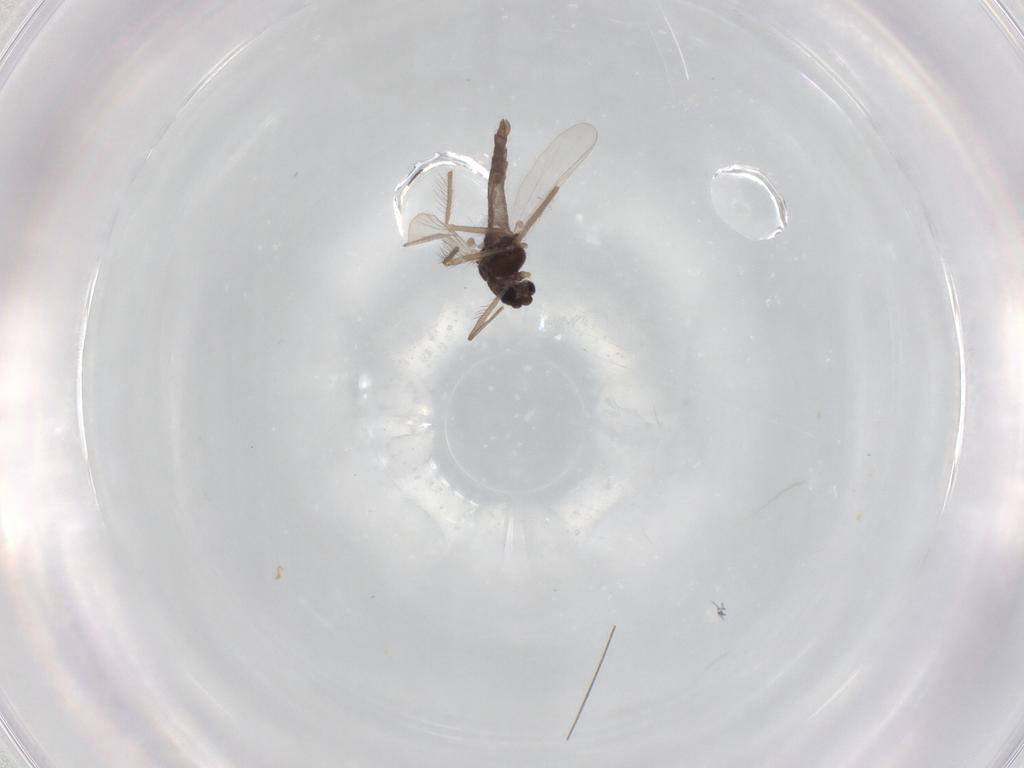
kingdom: Animalia
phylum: Arthropoda
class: Insecta
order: Diptera
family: Chironomidae
